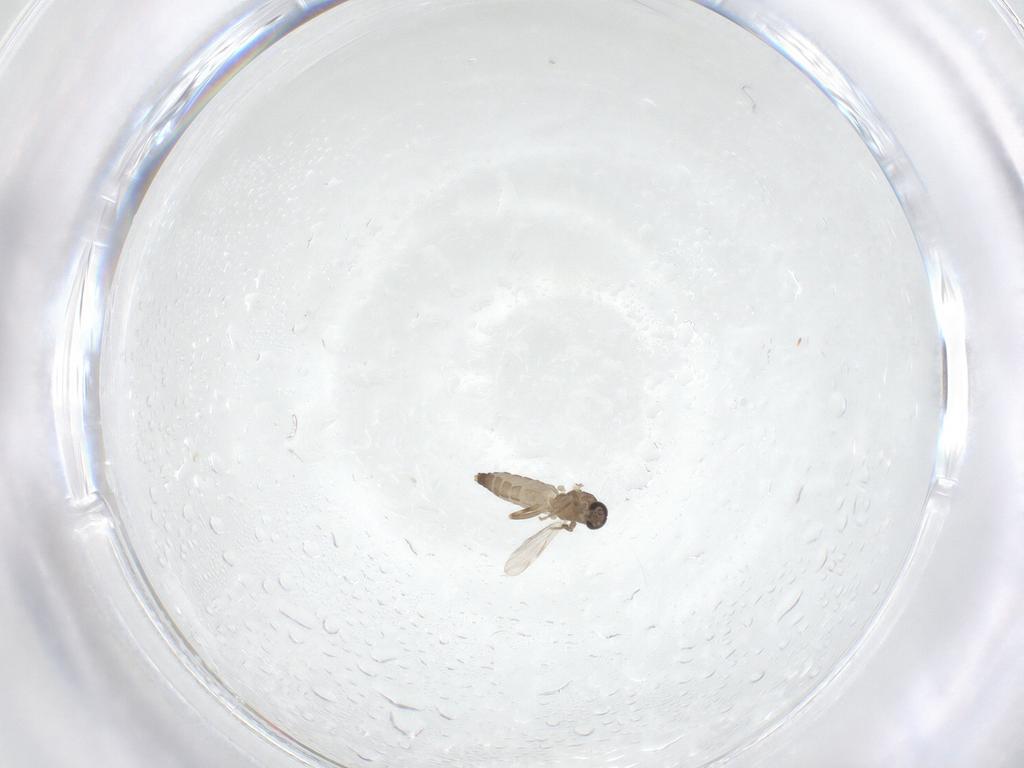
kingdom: Animalia
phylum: Arthropoda
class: Insecta
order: Diptera
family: Ceratopogonidae
